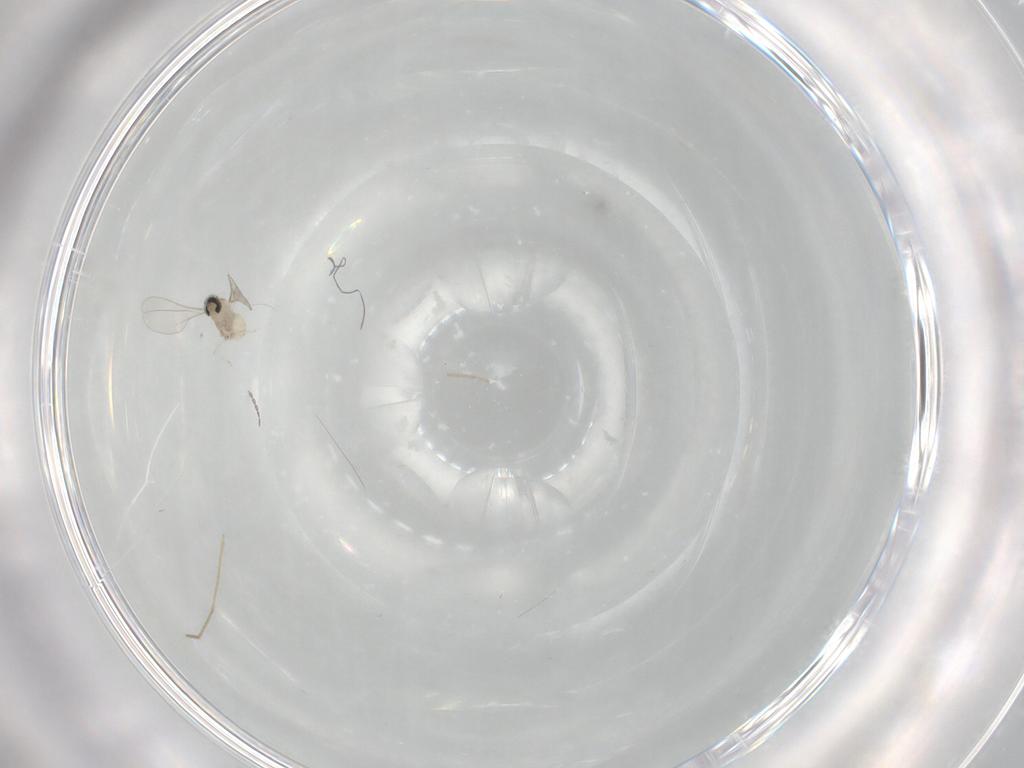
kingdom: Animalia
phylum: Arthropoda
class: Insecta
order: Diptera
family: Cecidomyiidae
